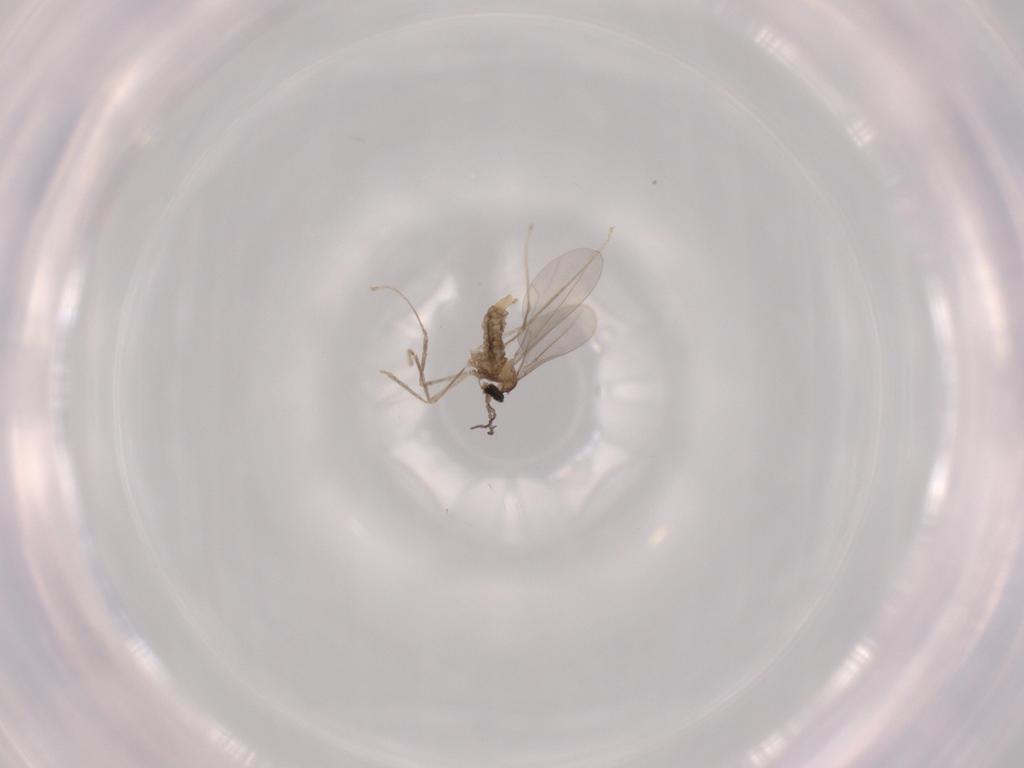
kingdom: Animalia
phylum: Arthropoda
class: Insecta
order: Diptera
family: Cecidomyiidae
